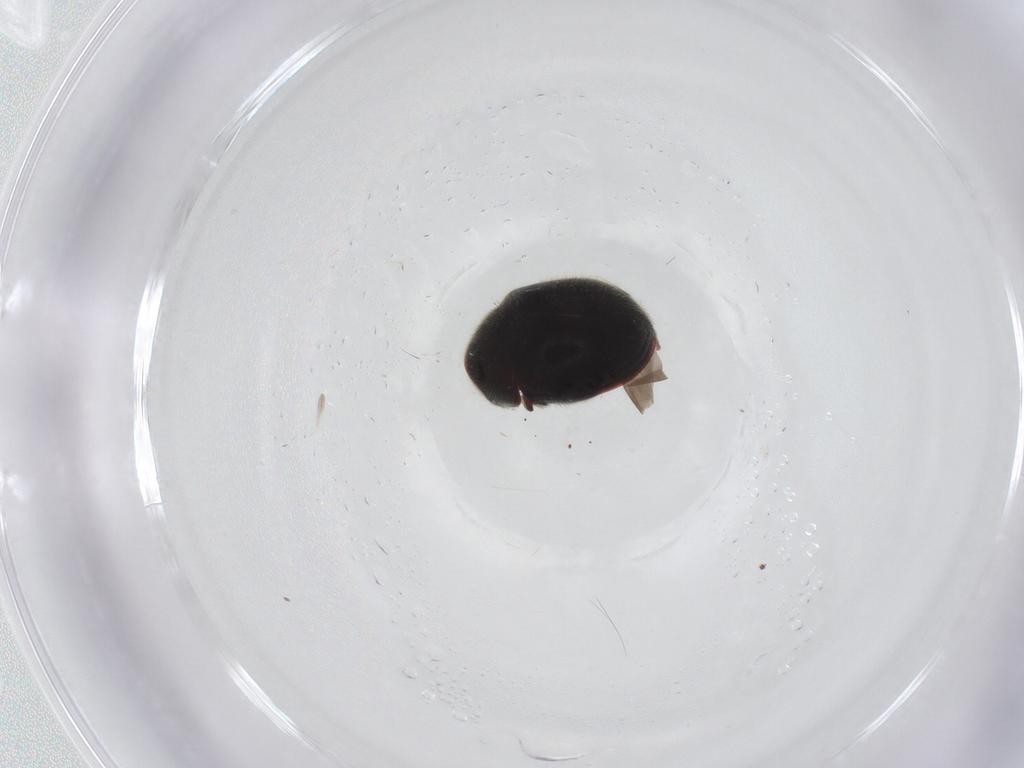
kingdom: Animalia
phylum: Arthropoda
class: Insecta
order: Coleoptera
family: Ptinidae
